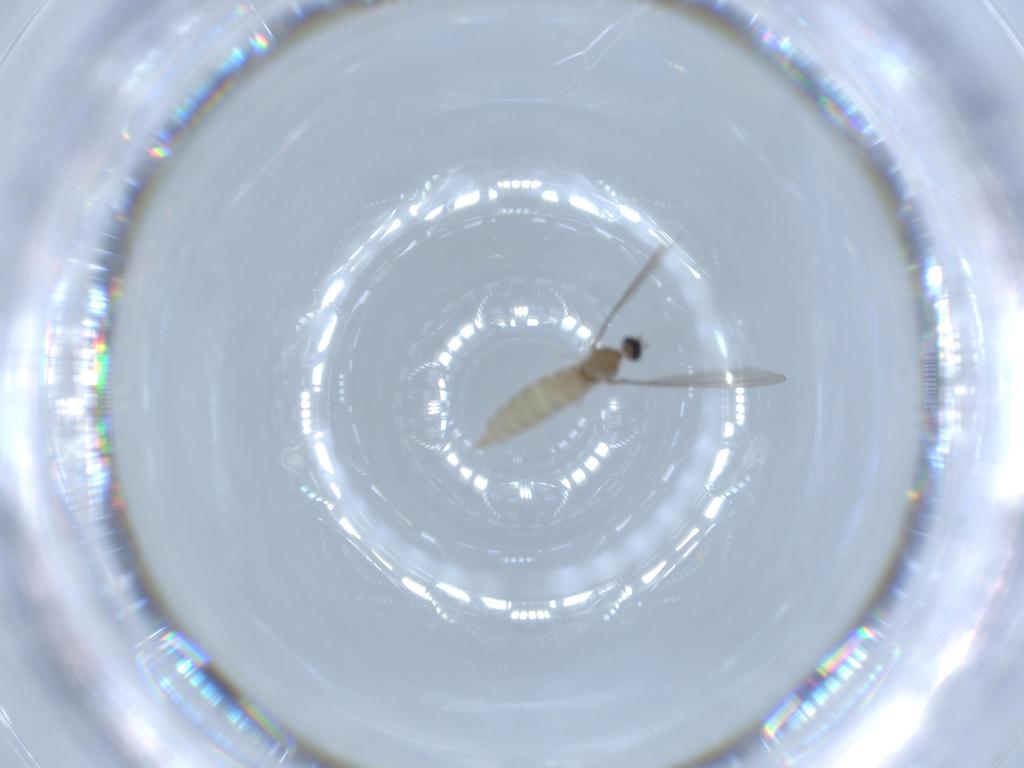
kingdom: Animalia
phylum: Arthropoda
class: Insecta
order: Diptera
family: Cecidomyiidae
